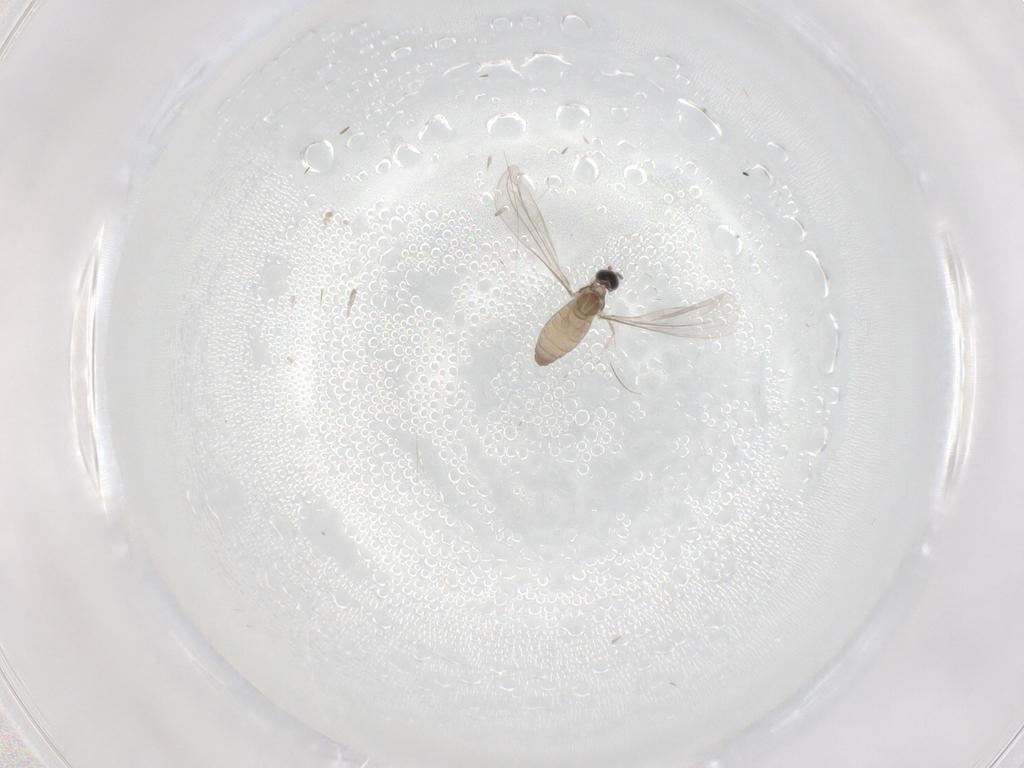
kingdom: Animalia
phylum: Arthropoda
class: Insecta
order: Diptera
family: Cecidomyiidae
